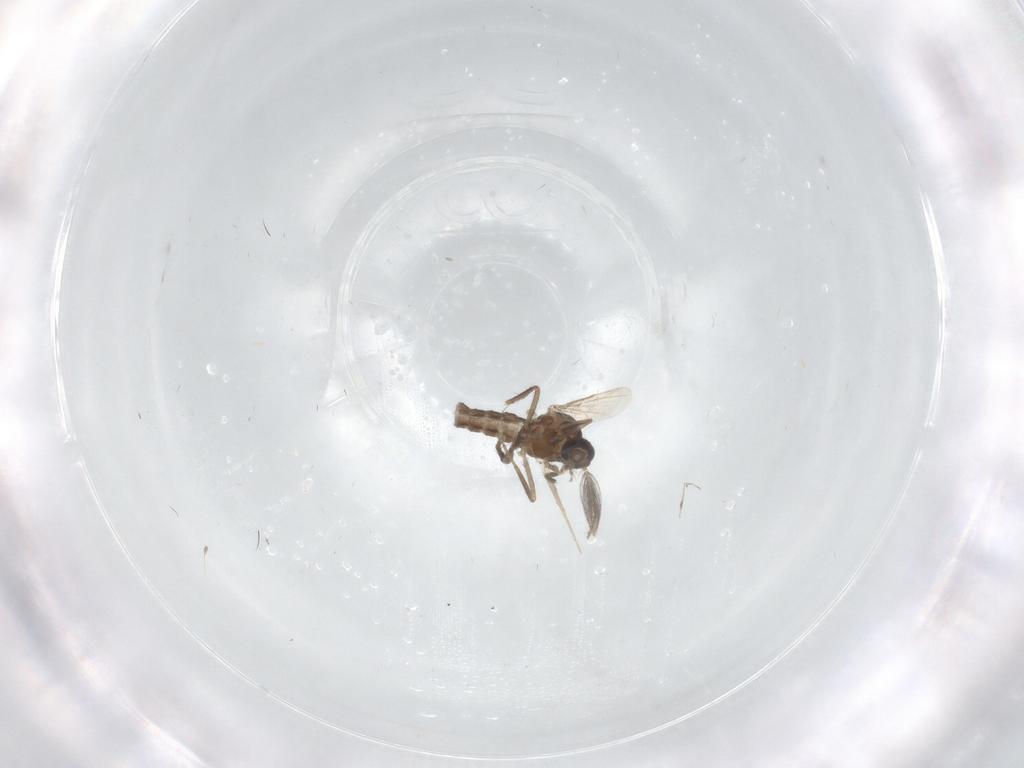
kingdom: Animalia
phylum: Arthropoda
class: Insecta
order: Diptera
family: Ceratopogonidae
